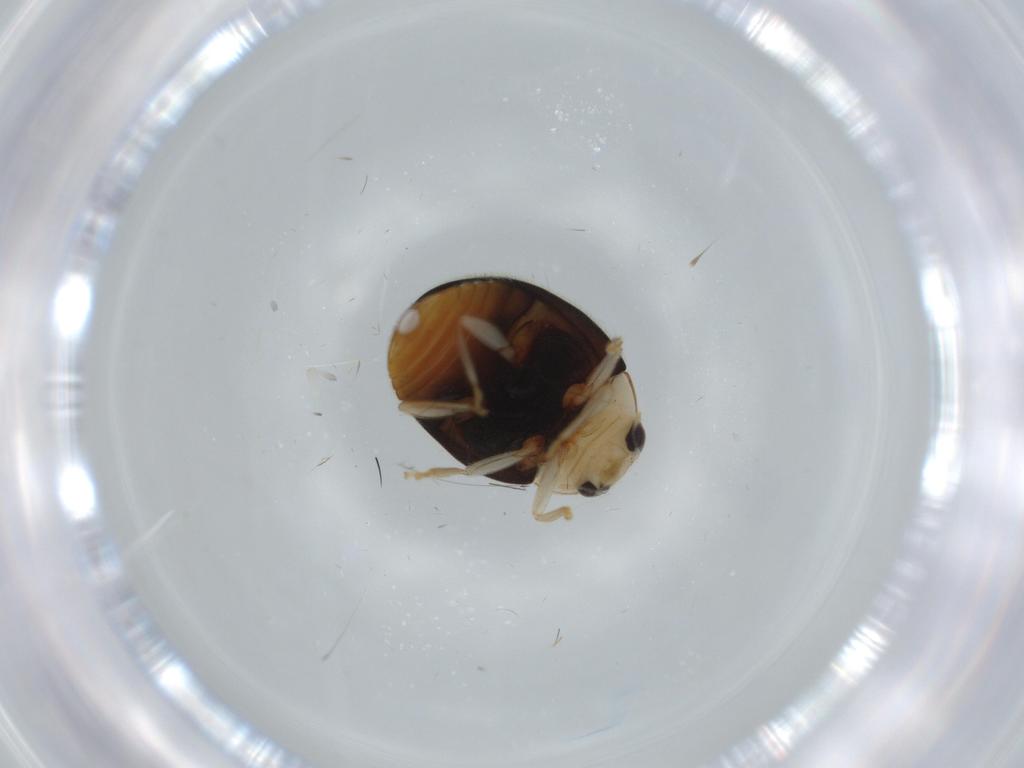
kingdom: Animalia
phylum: Arthropoda
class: Insecta
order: Coleoptera
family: Coccinellidae
